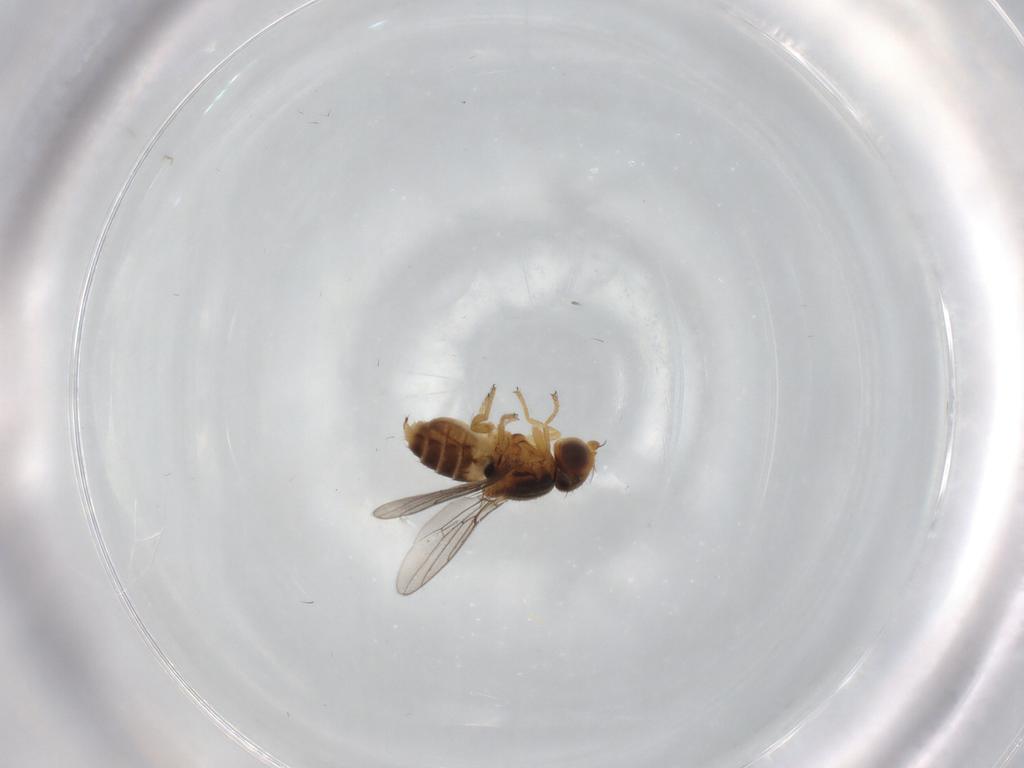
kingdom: Animalia
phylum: Arthropoda
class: Insecta
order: Diptera
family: Chloropidae
